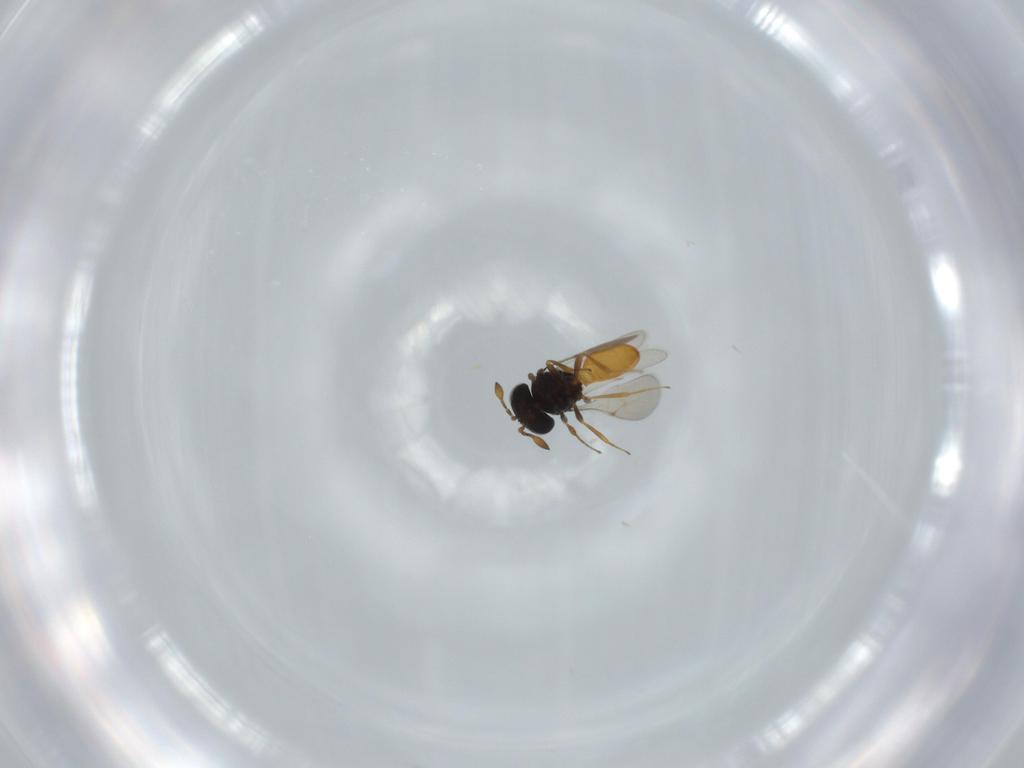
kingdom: Animalia
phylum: Arthropoda
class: Insecta
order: Hymenoptera
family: Scelionidae
